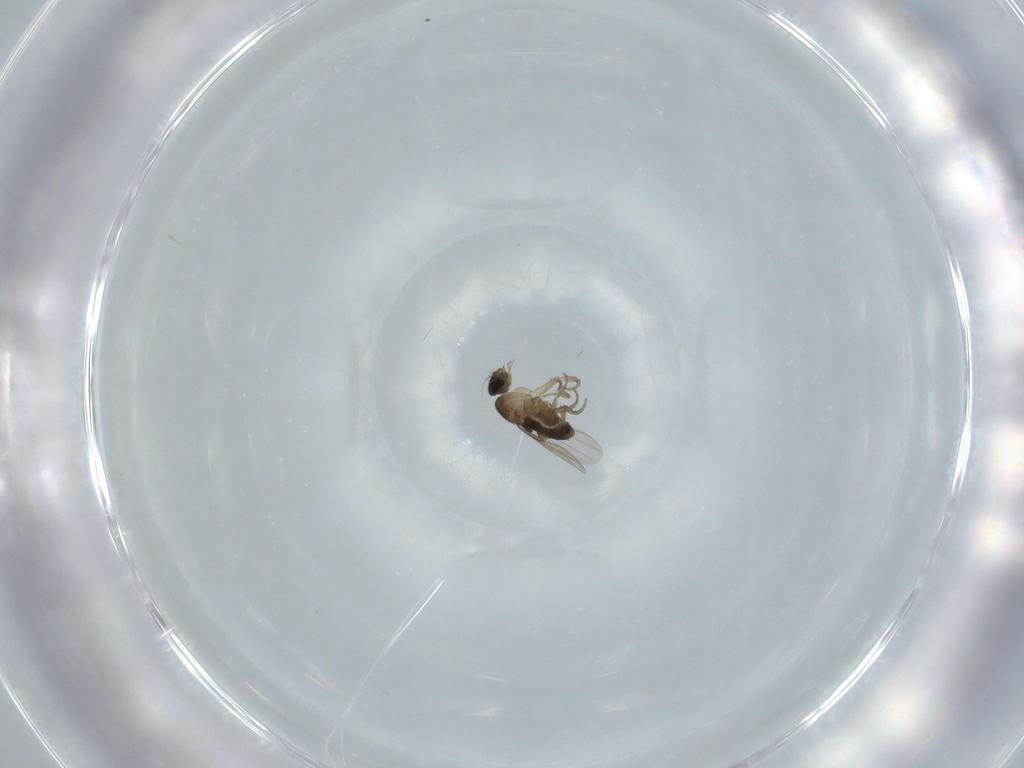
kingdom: Animalia
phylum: Arthropoda
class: Insecta
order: Diptera
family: Phoridae
